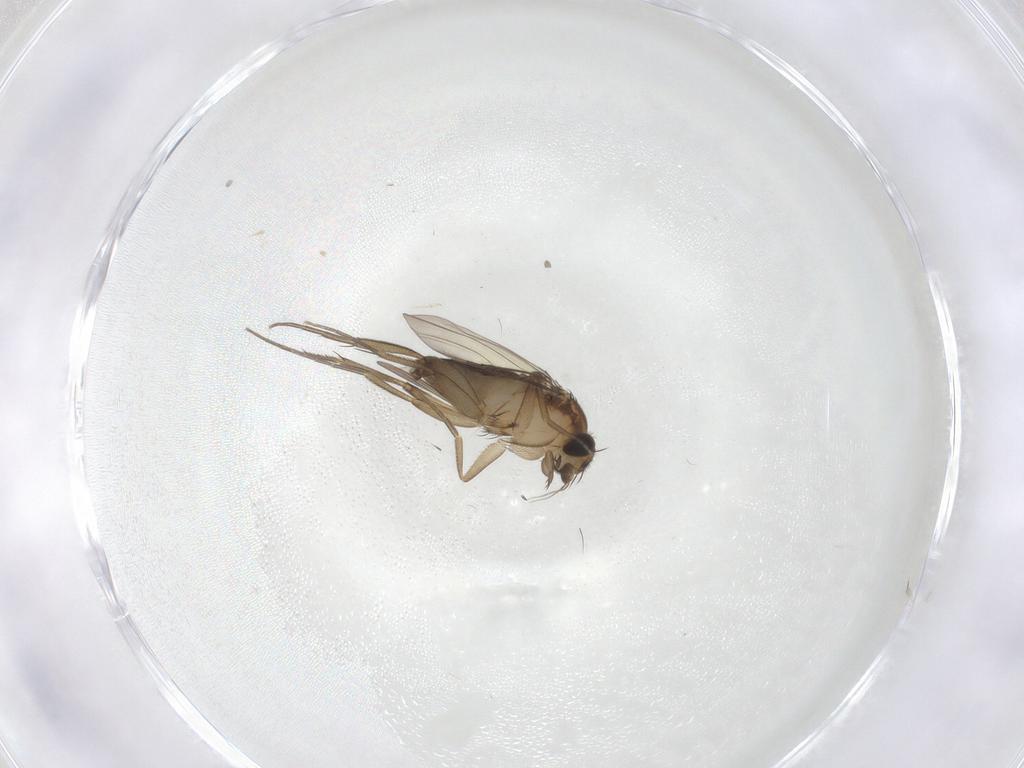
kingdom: Animalia
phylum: Arthropoda
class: Insecta
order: Diptera
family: Phoridae
